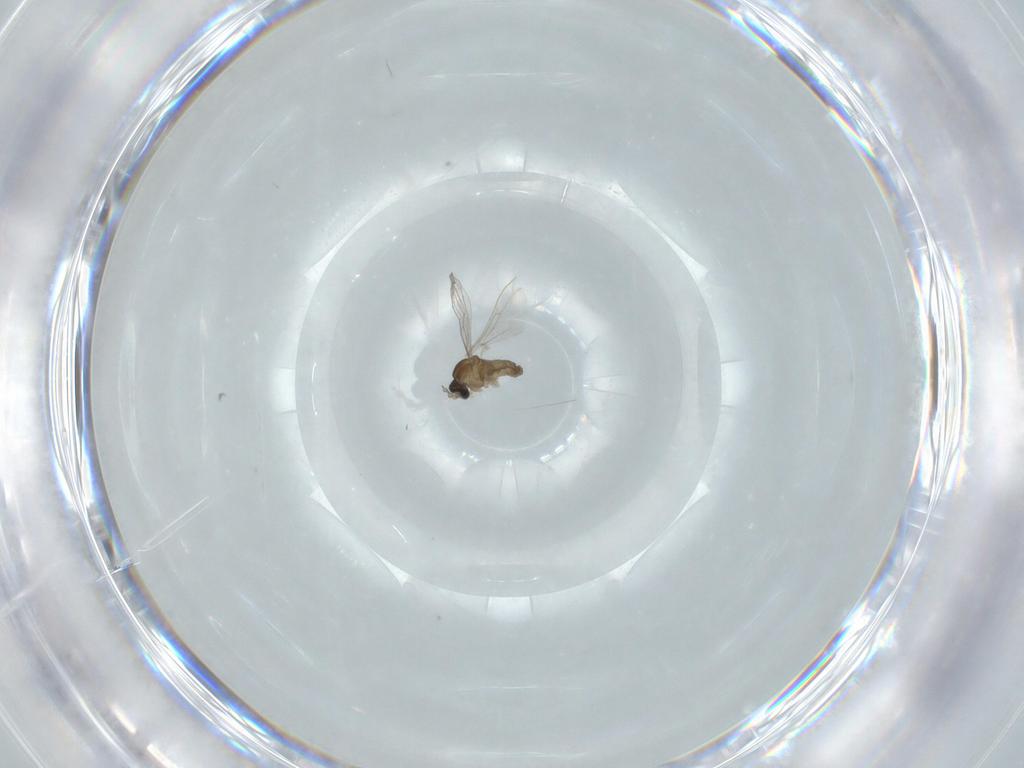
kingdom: Animalia
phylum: Arthropoda
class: Insecta
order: Diptera
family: Cecidomyiidae
